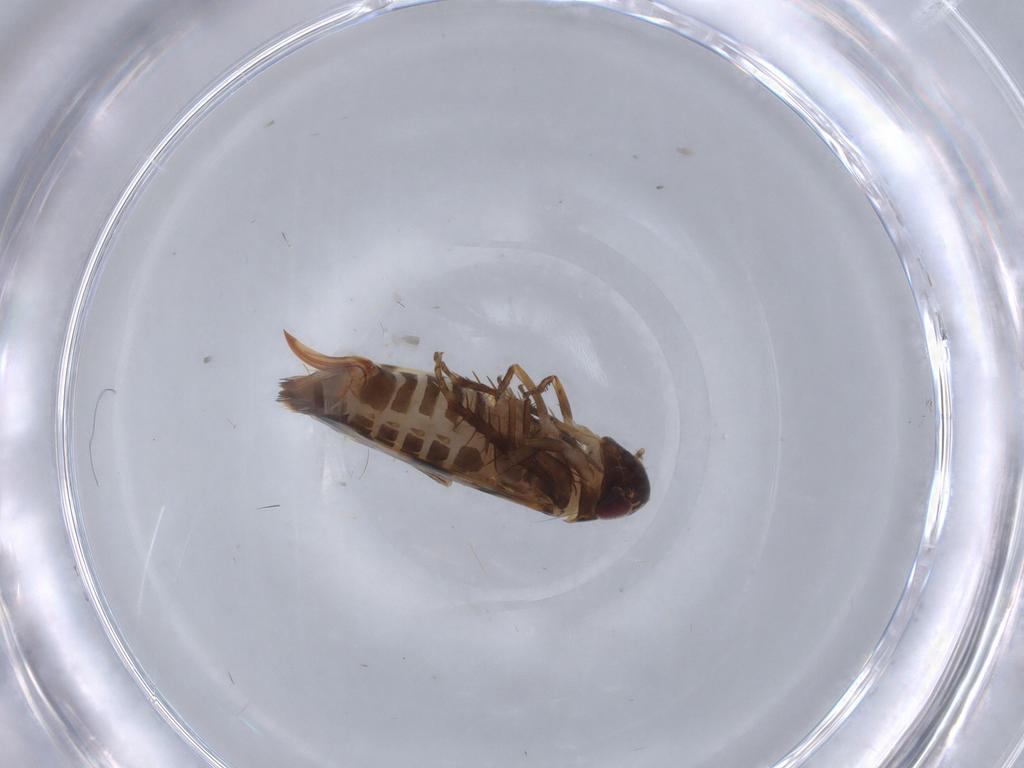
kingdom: Animalia
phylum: Arthropoda
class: Insecta
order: Hemiptera
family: Cicadellidae
